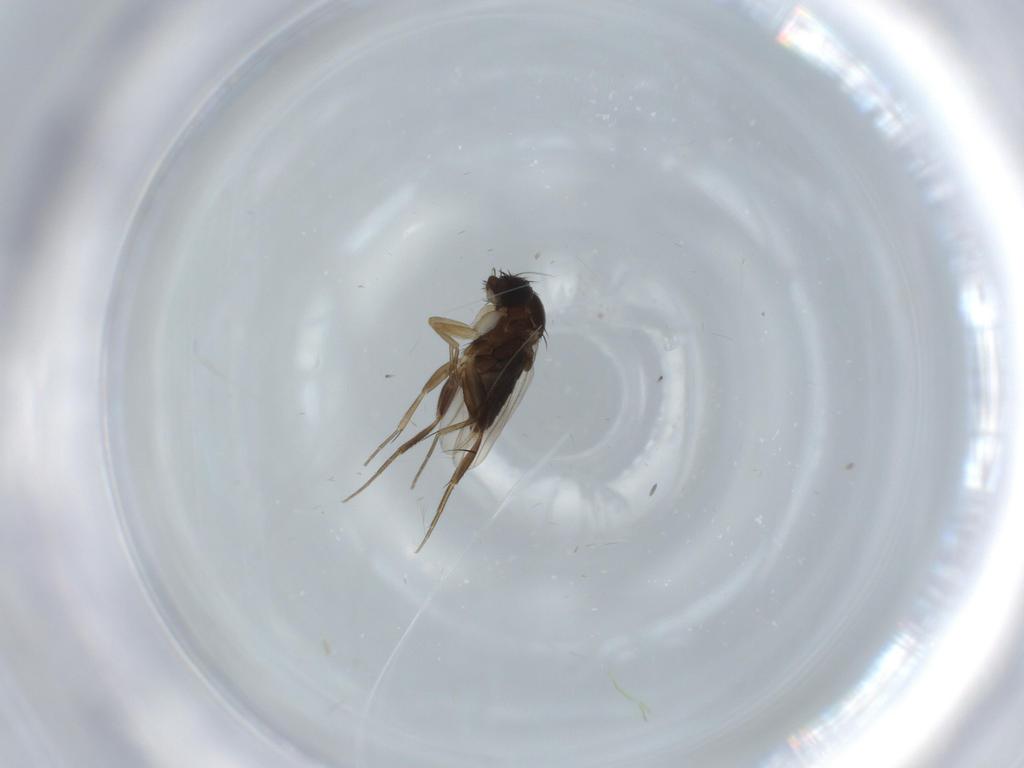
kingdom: Animalia
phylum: Arthropoda
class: Insecta
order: Diptera
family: Phoridae
